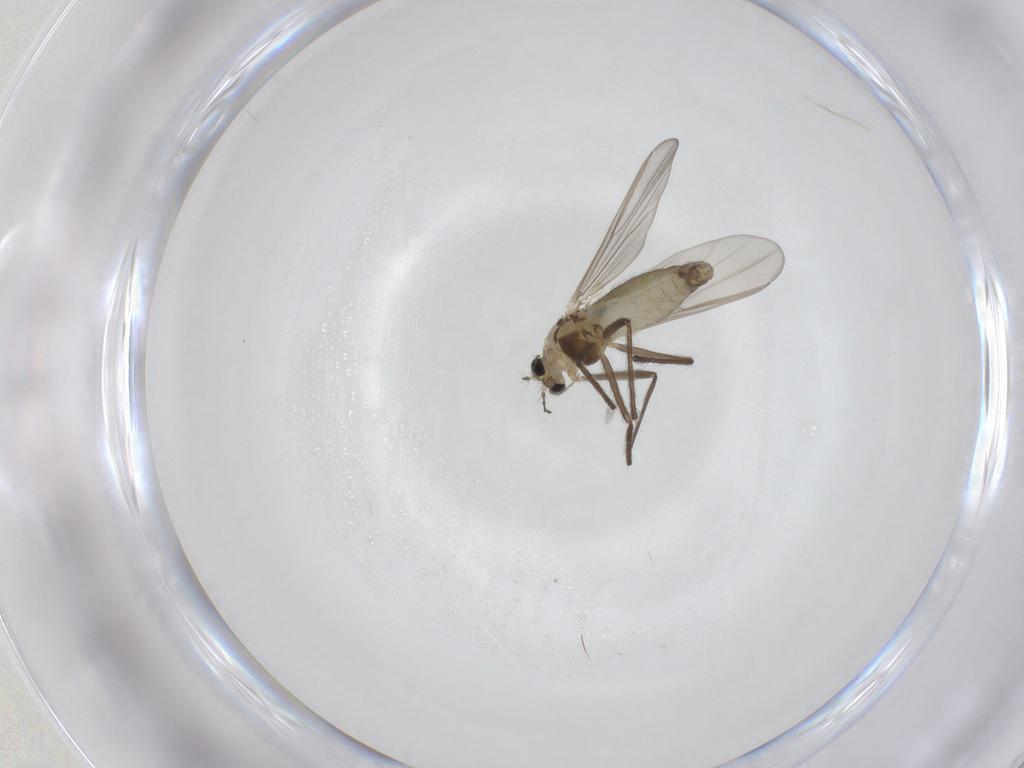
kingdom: Animalia
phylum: Arthropoda
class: Insecta
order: Diptera
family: Chironomidae
